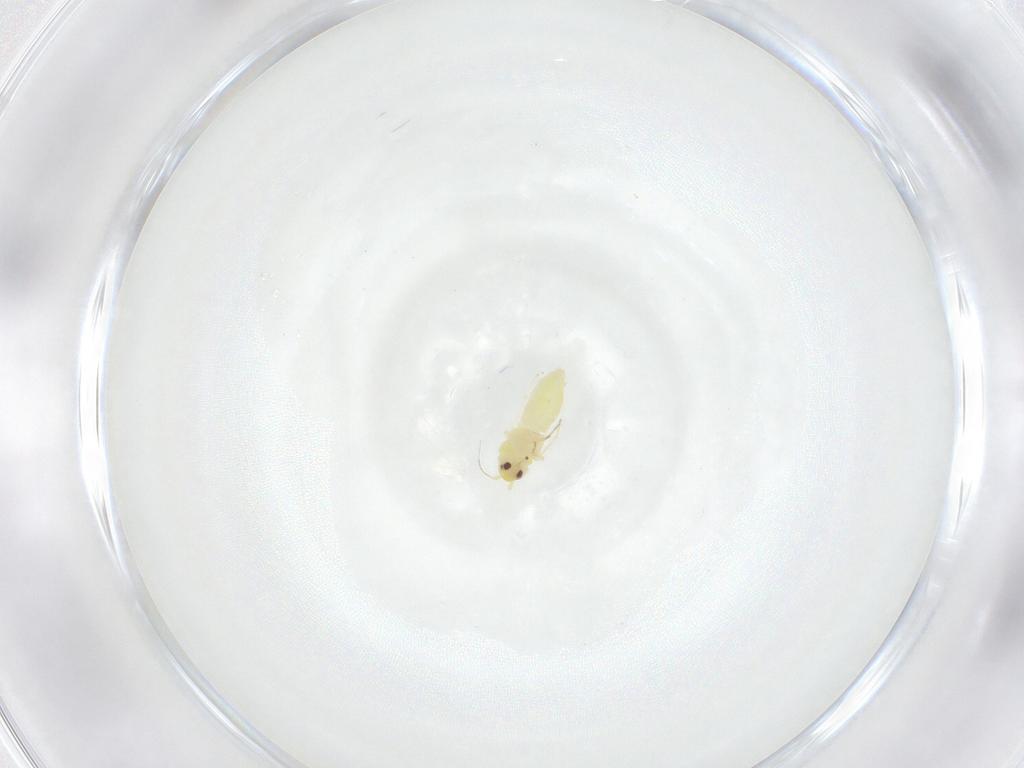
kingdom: Animalia
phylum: Arthropoda
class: Insecta
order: Hemiptera
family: Aleyrodidae
